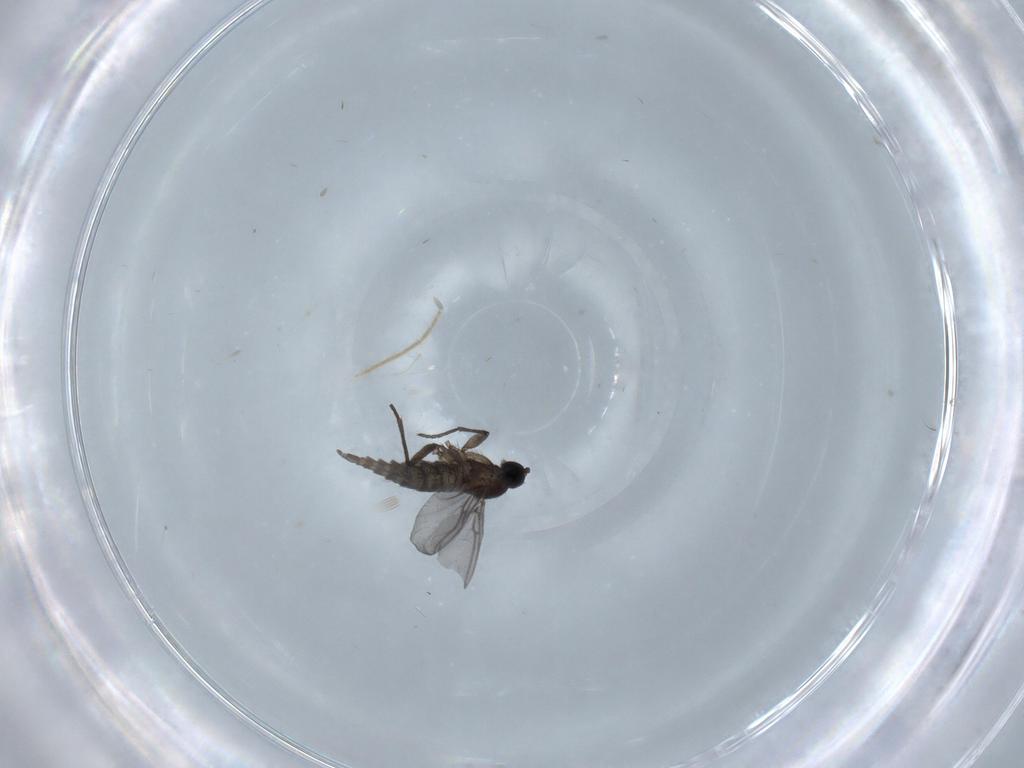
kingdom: Animalia
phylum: Arthropoda
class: Insecta
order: Diptera
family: Chironomidae
